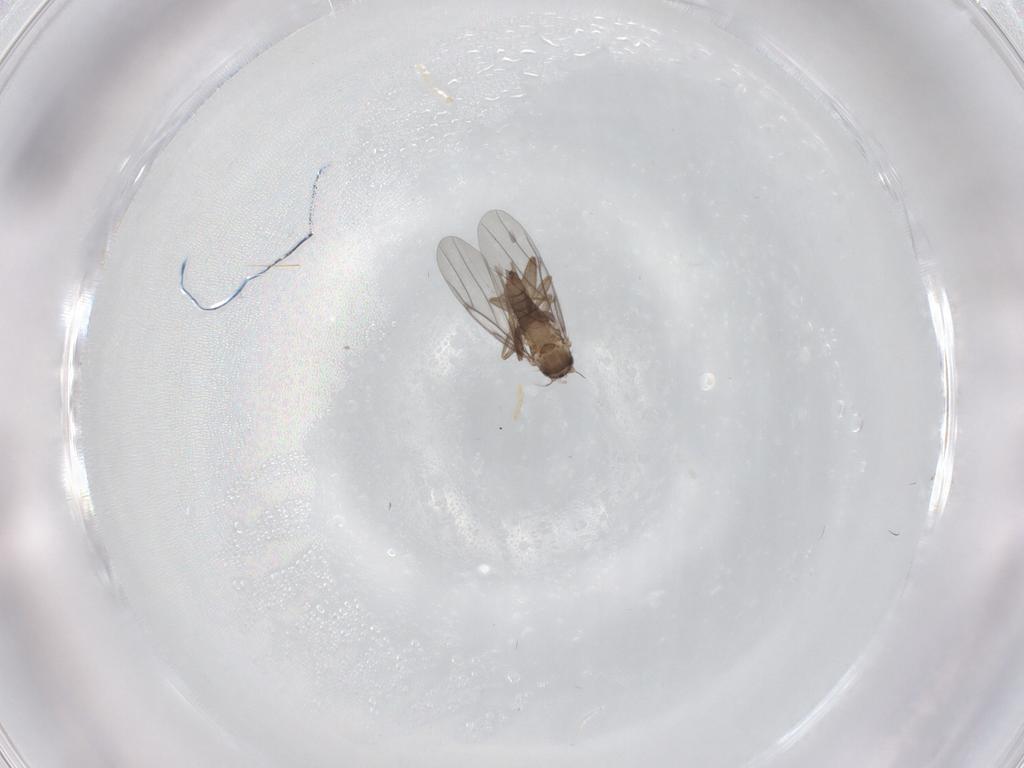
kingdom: Animalia
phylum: Arthropoda
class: Insecta
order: Diptera
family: Cecidomyiidae
